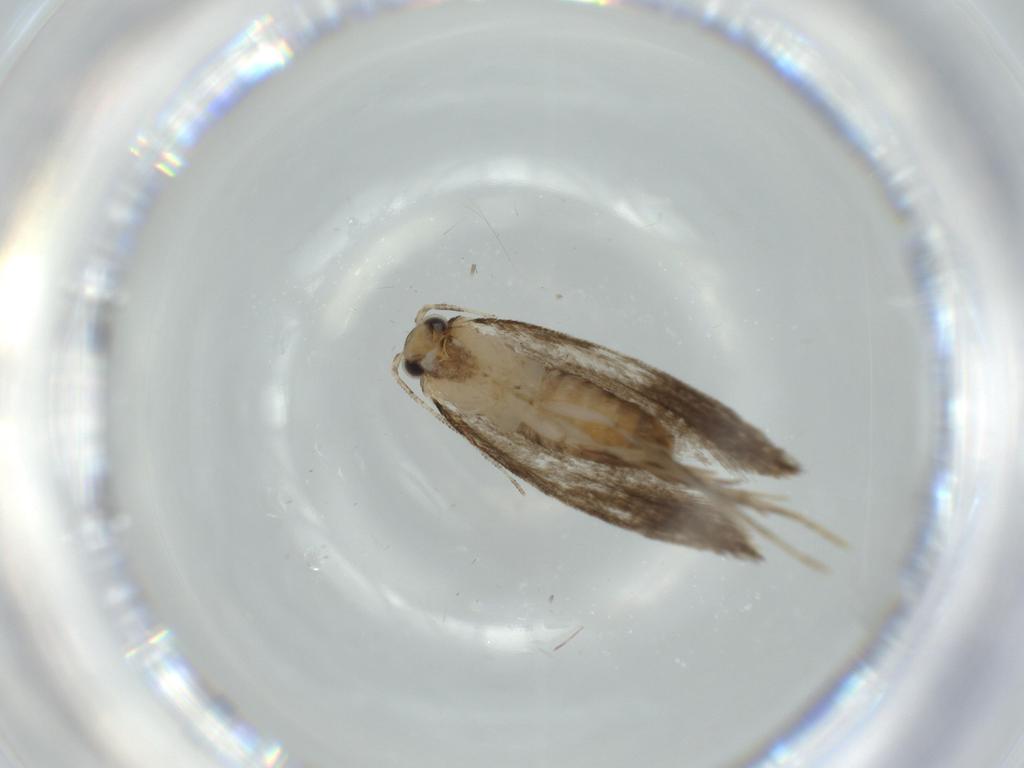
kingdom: Animalia
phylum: Arthropoda
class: Insecta
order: Lepidoptera
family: Tineidae
